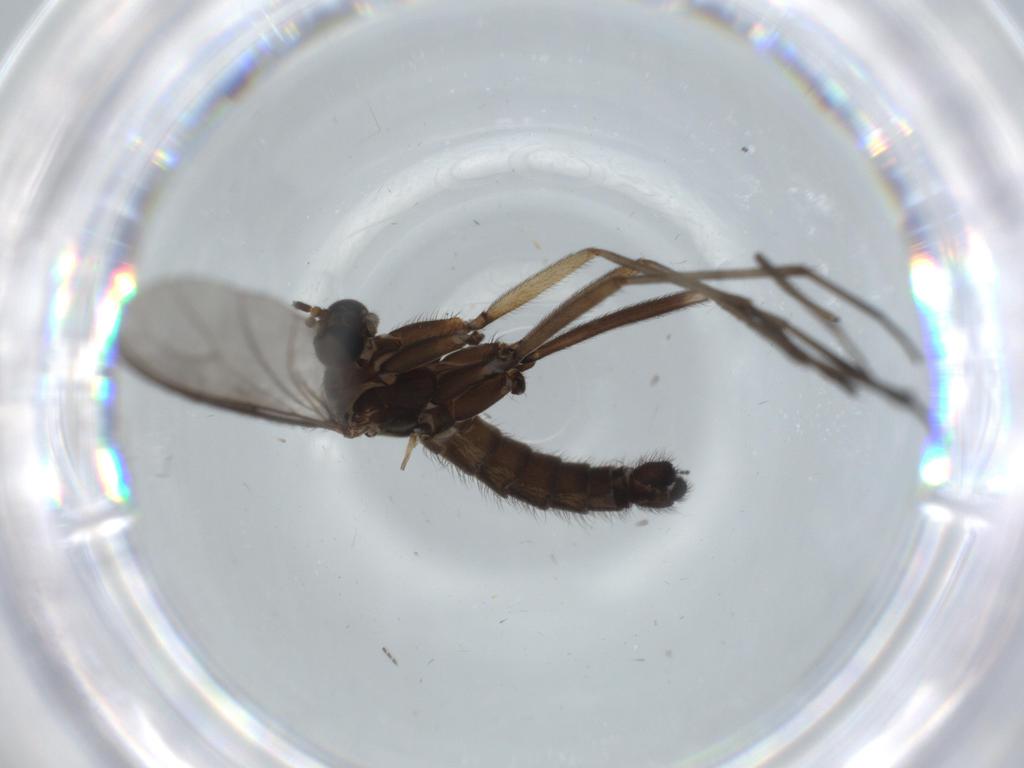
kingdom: Animalia
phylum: Arthropoda
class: Insecta
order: Diptera
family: Sciaridae
